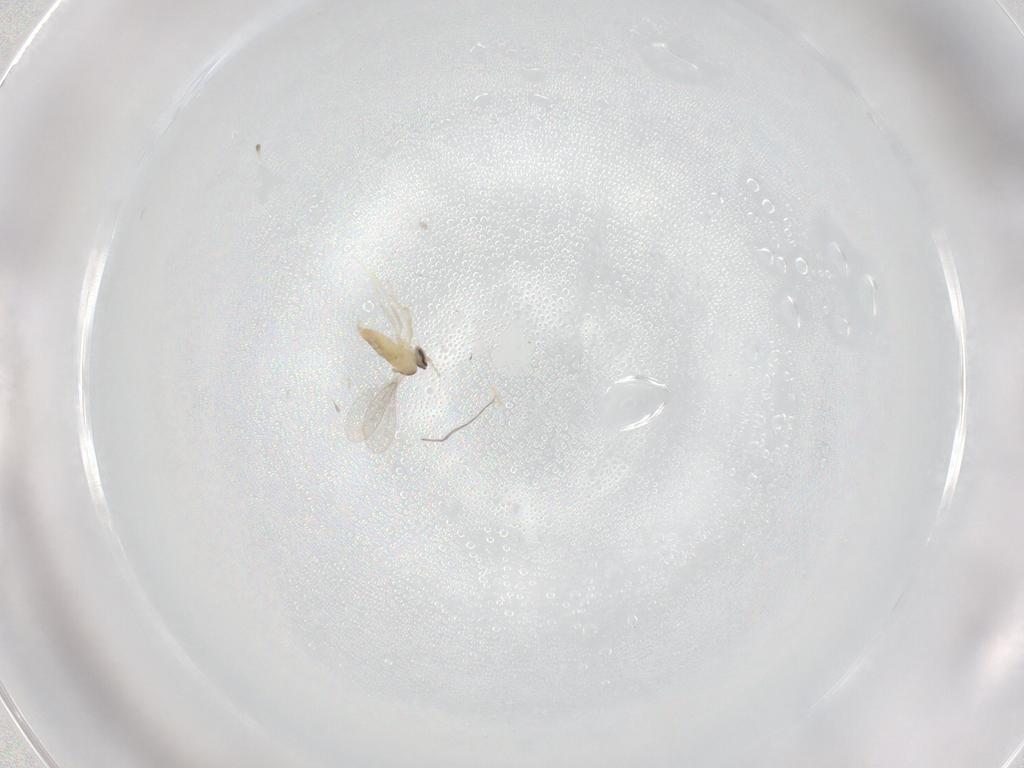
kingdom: Animalia
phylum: Arthropoda
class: Insecta
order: Diptera
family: Cecidomyiidae
